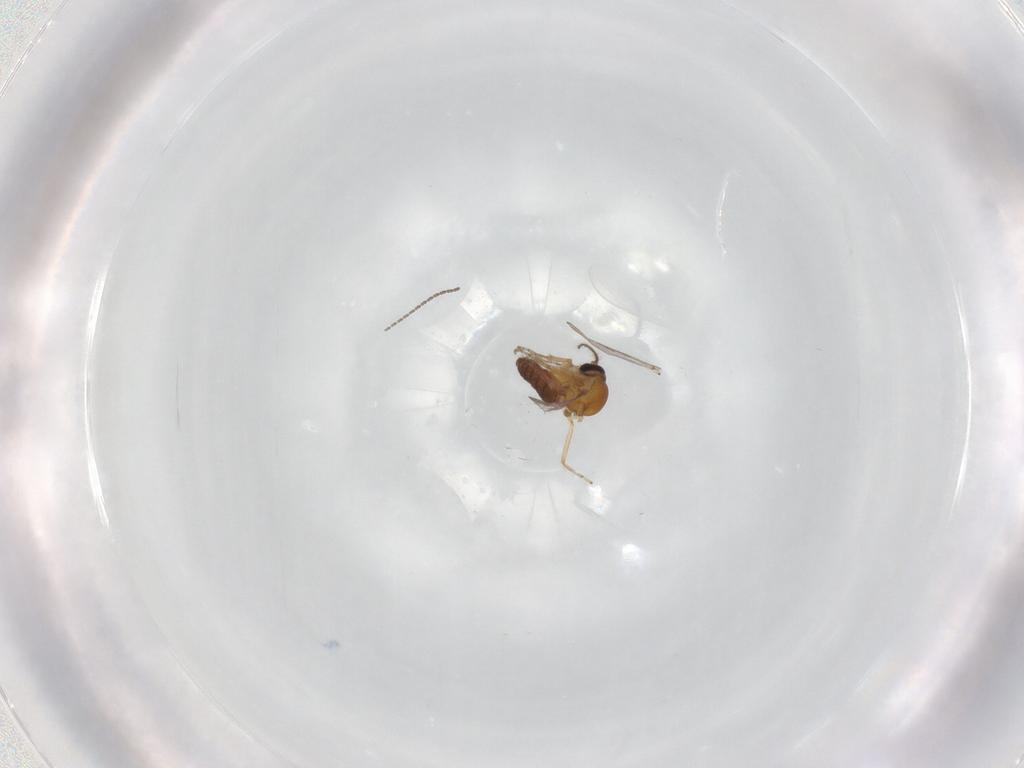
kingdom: Animalia
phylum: Arthropoda
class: Insecta
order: Diptera
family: Cecidomyiidae
